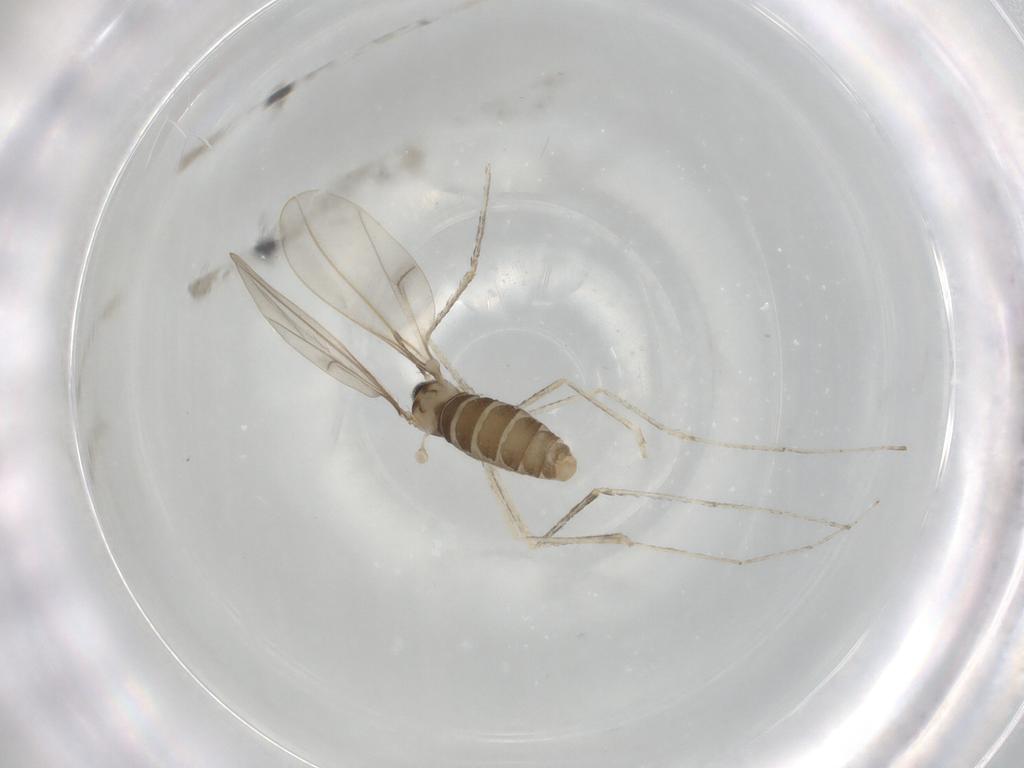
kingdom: Animalia
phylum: Arthropoda
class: Insecta
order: Diptera
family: Cecidomyiidae
